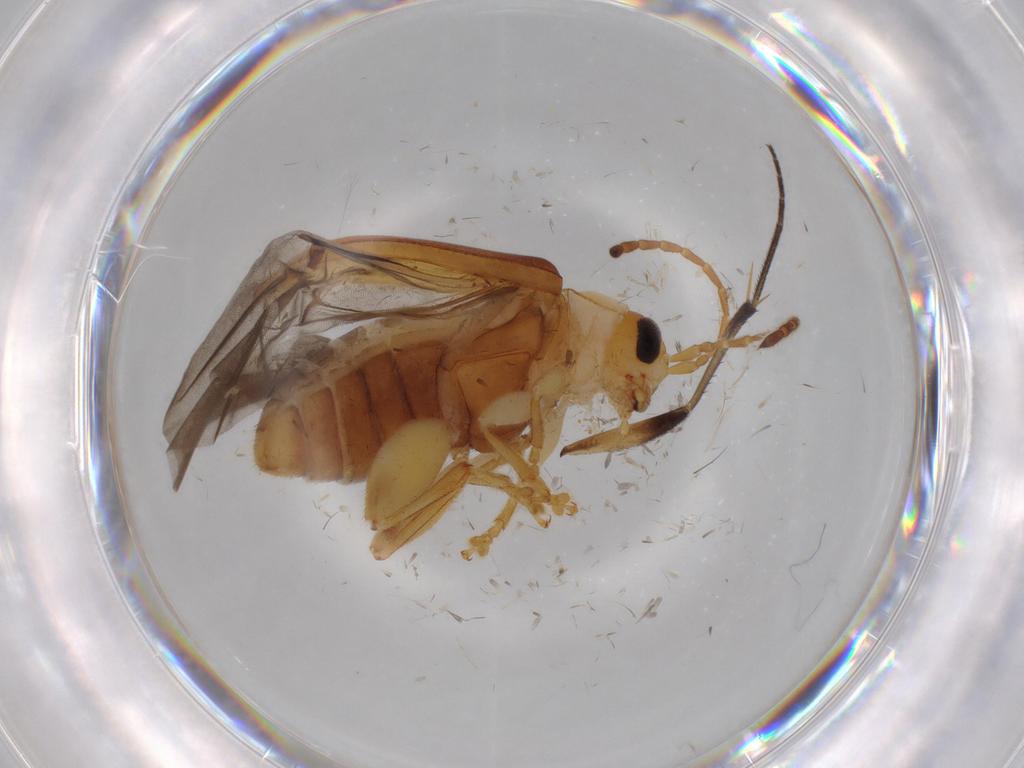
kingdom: Animalia
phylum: Arthropoda
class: Insecta
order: Coleoptera
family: Chrysomelidae
